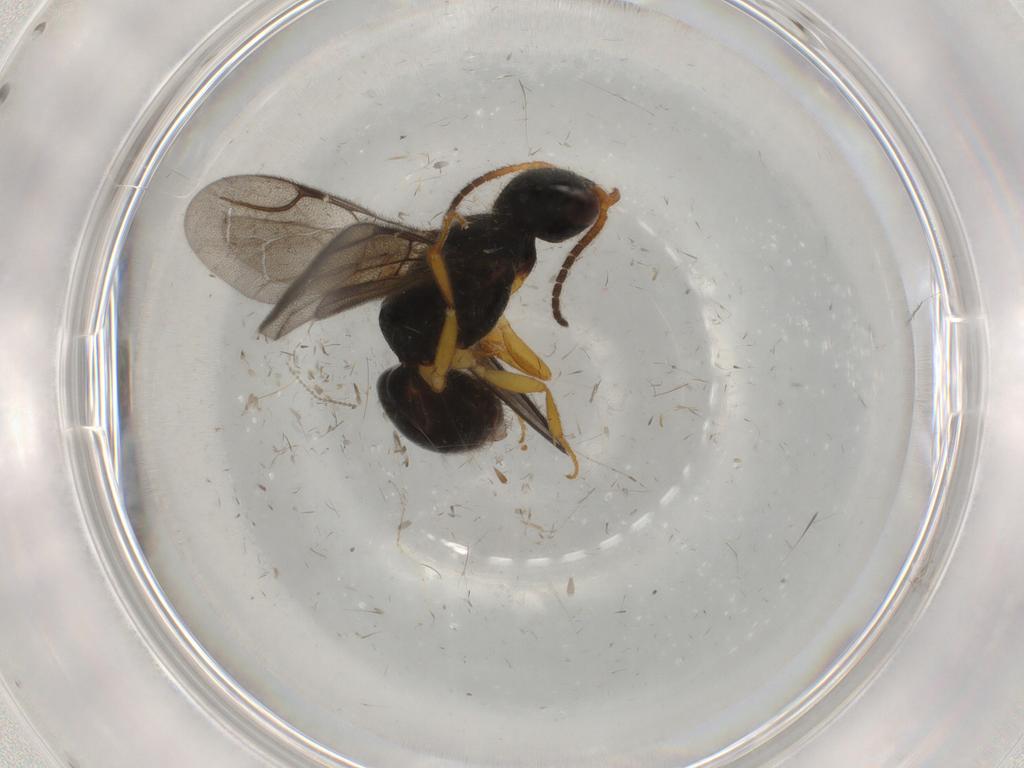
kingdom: Animalia
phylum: Arthropoda
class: Insecta
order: Hymenoptera
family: Bethylidae
